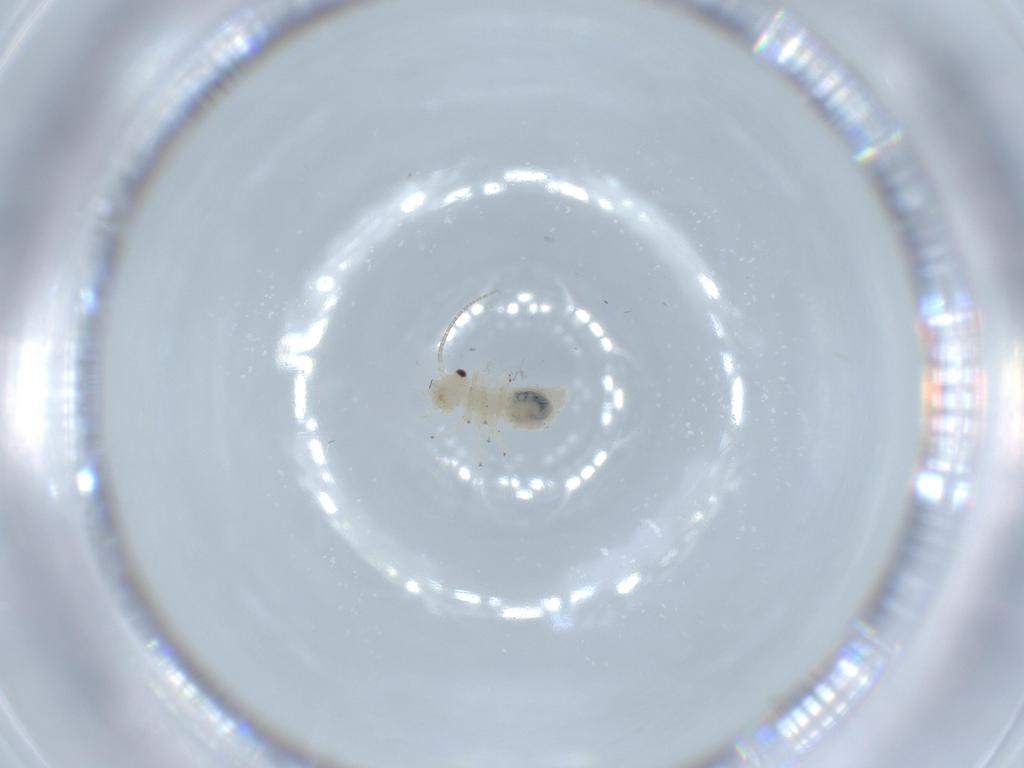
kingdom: Animalia
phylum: Arthropoda
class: Insecta
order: Psocodea
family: Caeciliusidae
